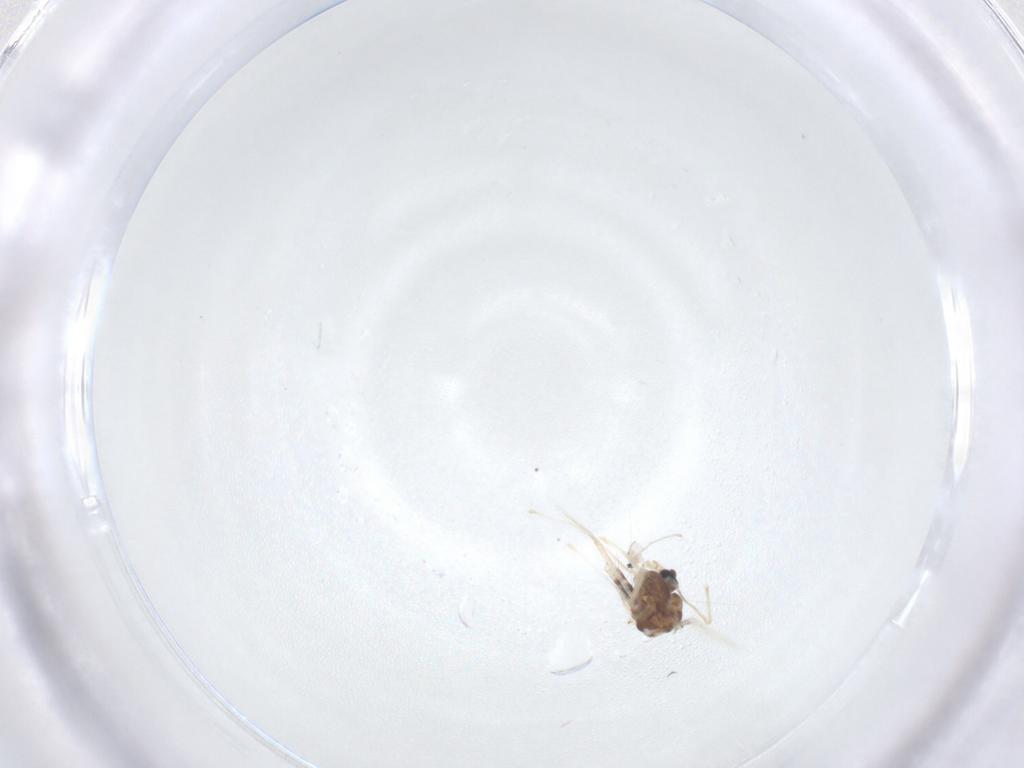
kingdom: Animalia
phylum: Arthropoda
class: Insecta
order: Diptera
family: Chironomidae
